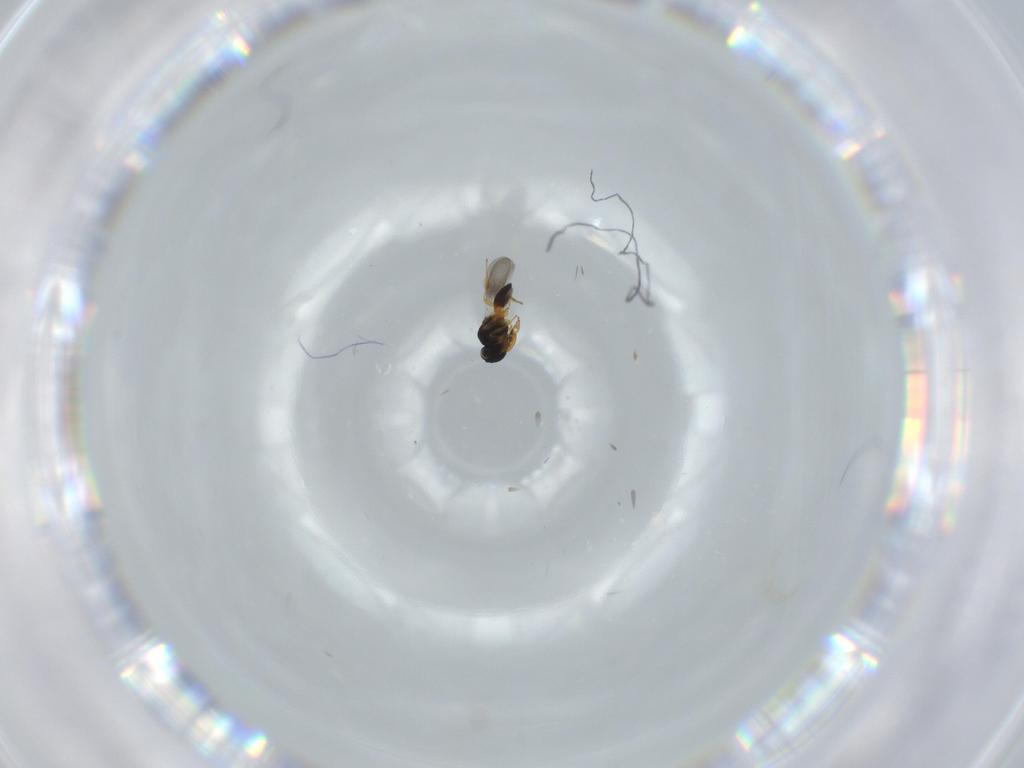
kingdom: Animalia
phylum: Arthropoda
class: Insecta
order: Hymenoptera
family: Platygastridae
